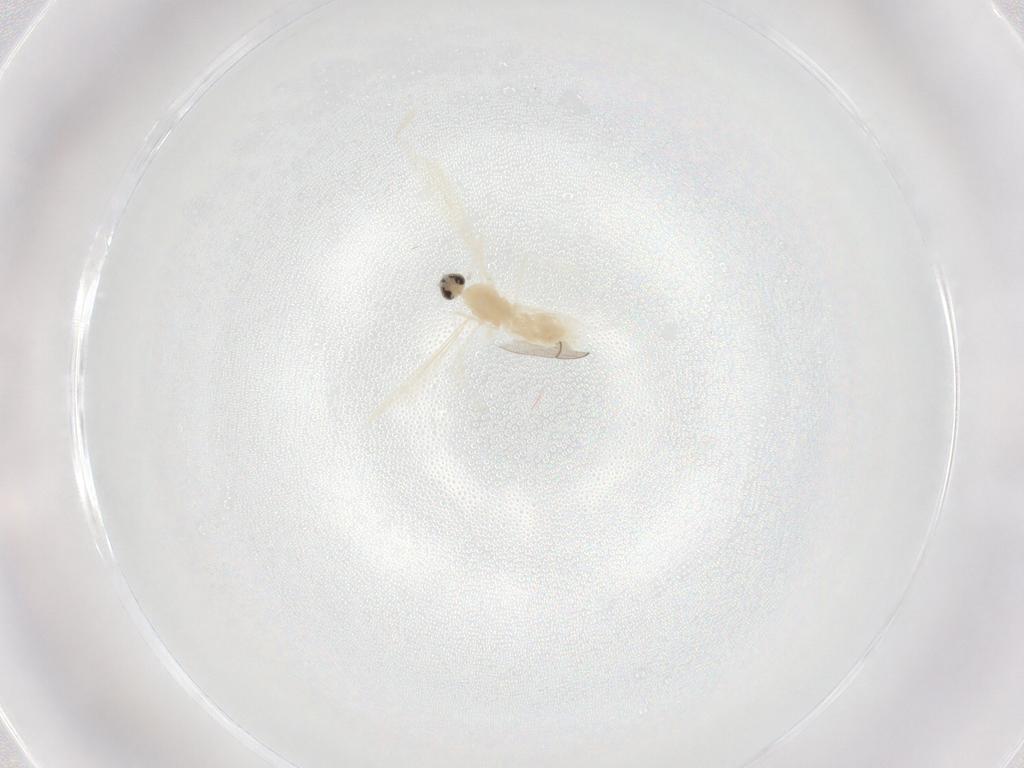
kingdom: Animalia
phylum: Arthropoda
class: Insecta
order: Diptera
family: Cecidomyiidae
